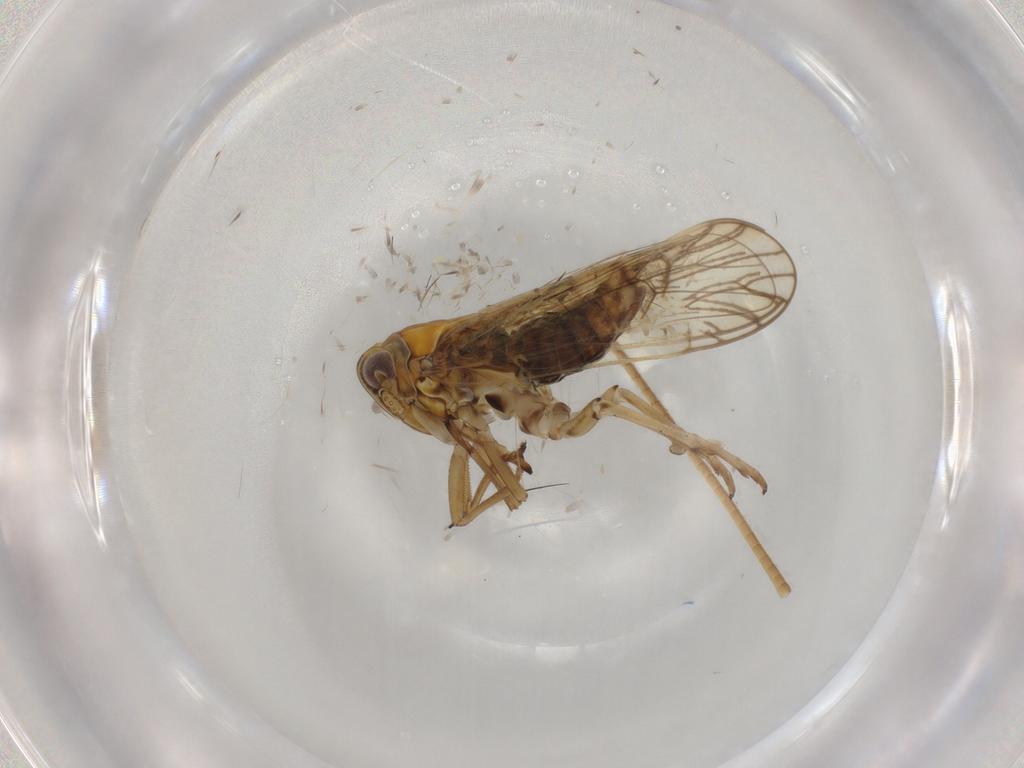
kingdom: Animalia
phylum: Arthropoda
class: Insecta
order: Hemiptera
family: Delphacidae
